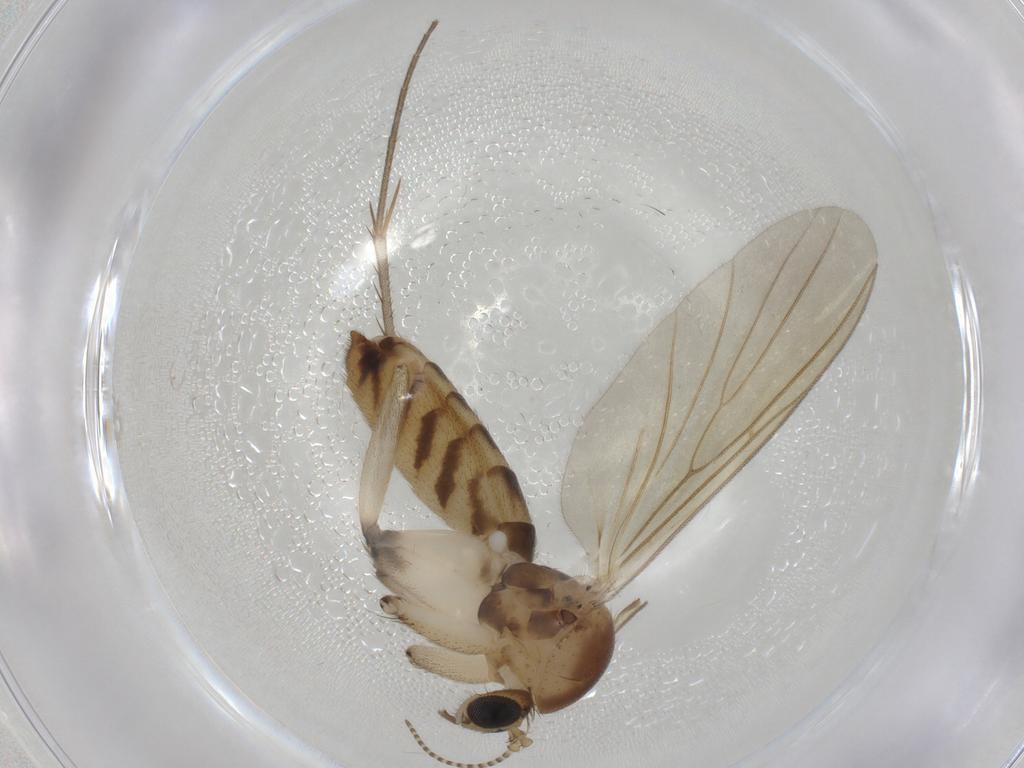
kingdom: Animalia
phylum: Arthropoda
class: Insecta
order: Diptera
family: Mycetophilidae
